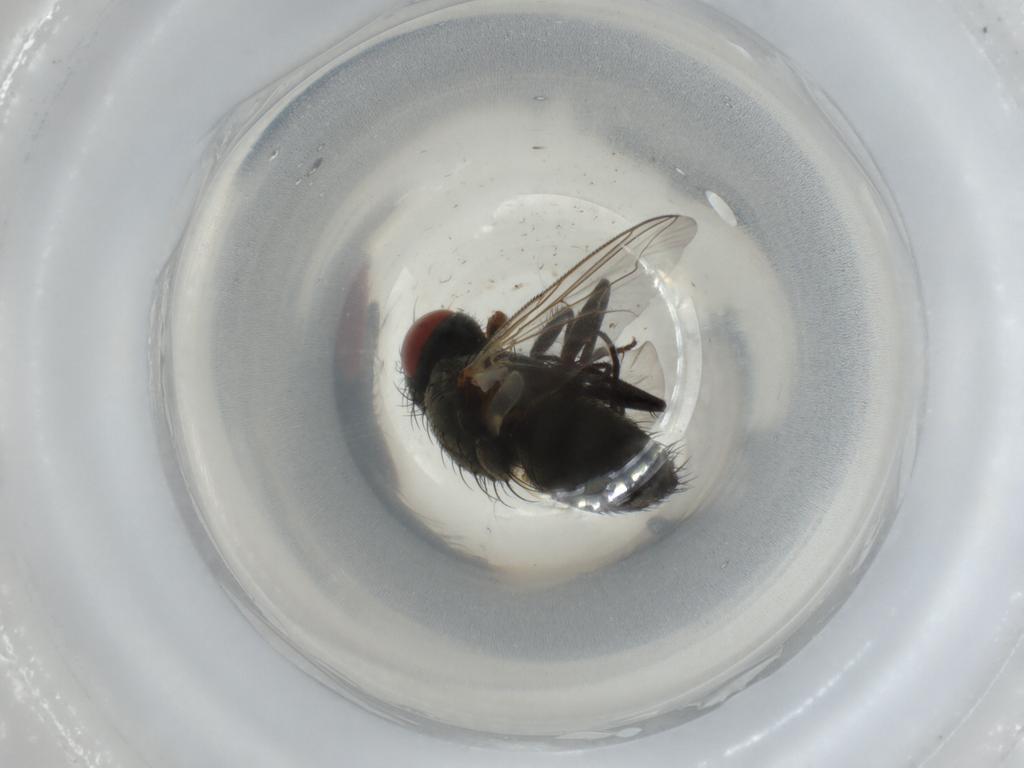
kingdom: Animalia
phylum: Arthropoda
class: Insecta
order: Diptera
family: Sarcophagidae
